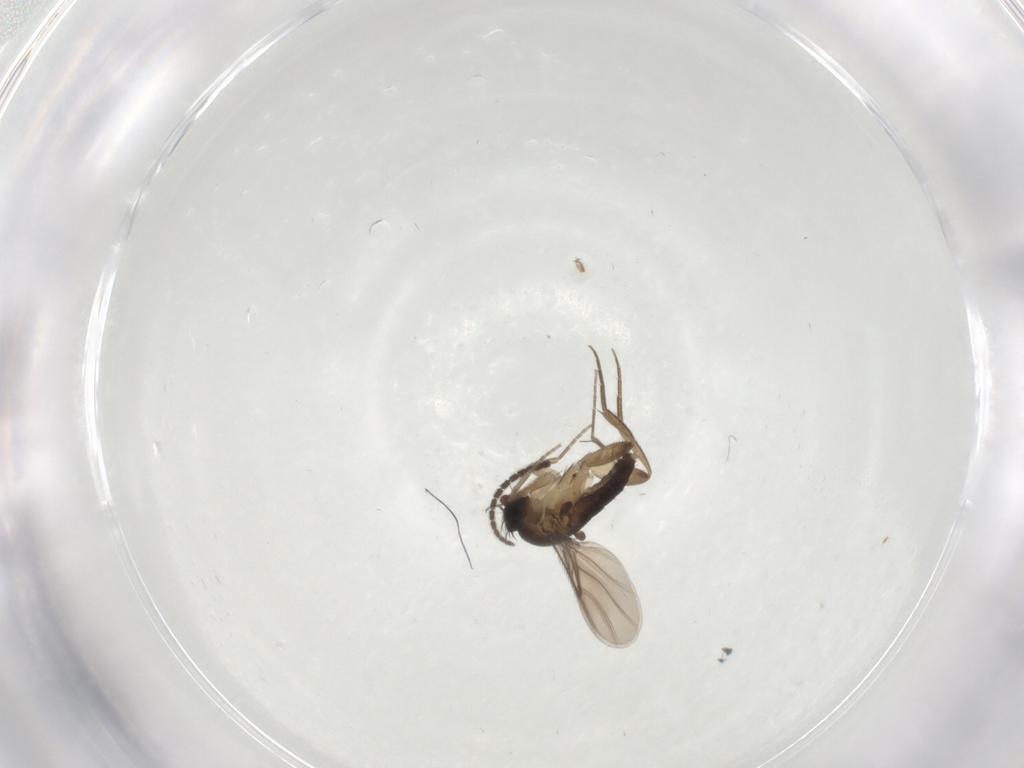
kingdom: Animalia
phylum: Arthropoda
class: Insecta
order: Diptera
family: Phoridae
